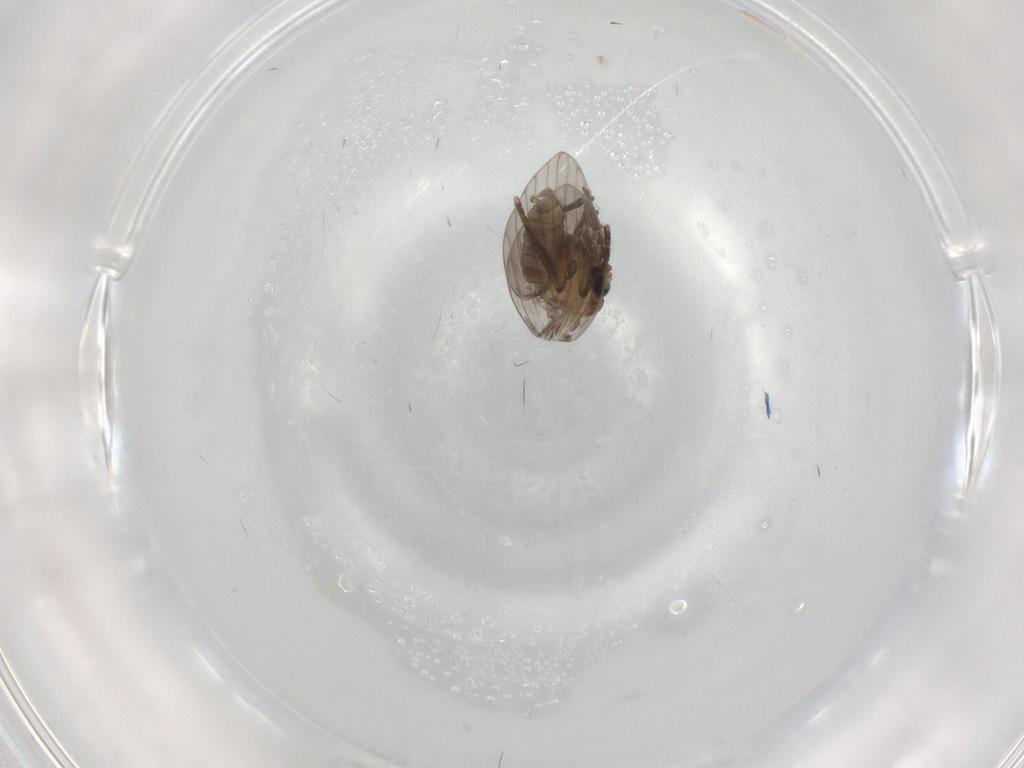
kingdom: Animalia
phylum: Arthropoda
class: Insecta
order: Diptera
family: Psychodidae
